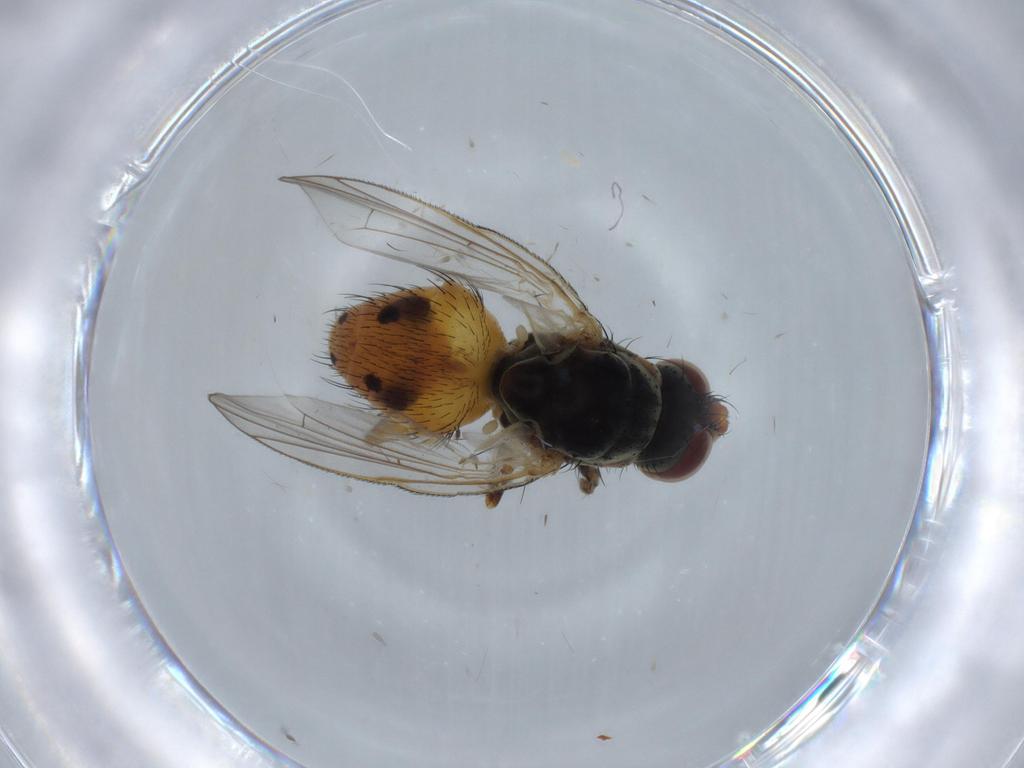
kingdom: Animalia
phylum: Arthropoda
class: Insecta
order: Diptera
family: Muscidae
